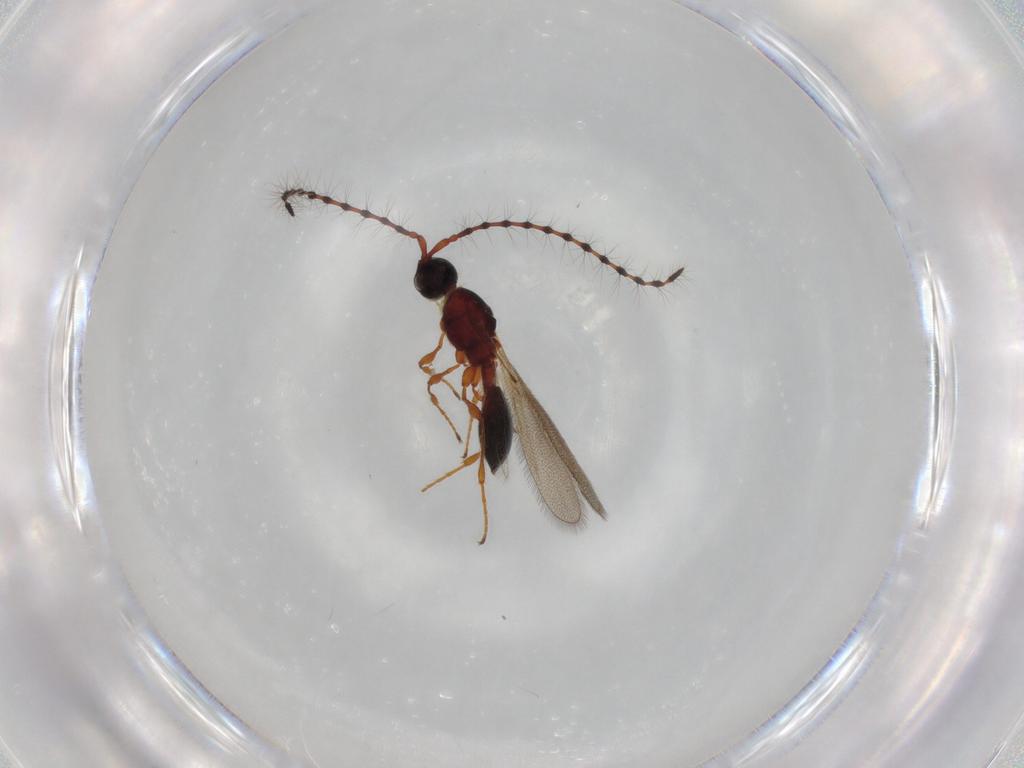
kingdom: Animalia
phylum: Arthropoda
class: Insecta
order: Hymenoptera
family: Diapriidae
